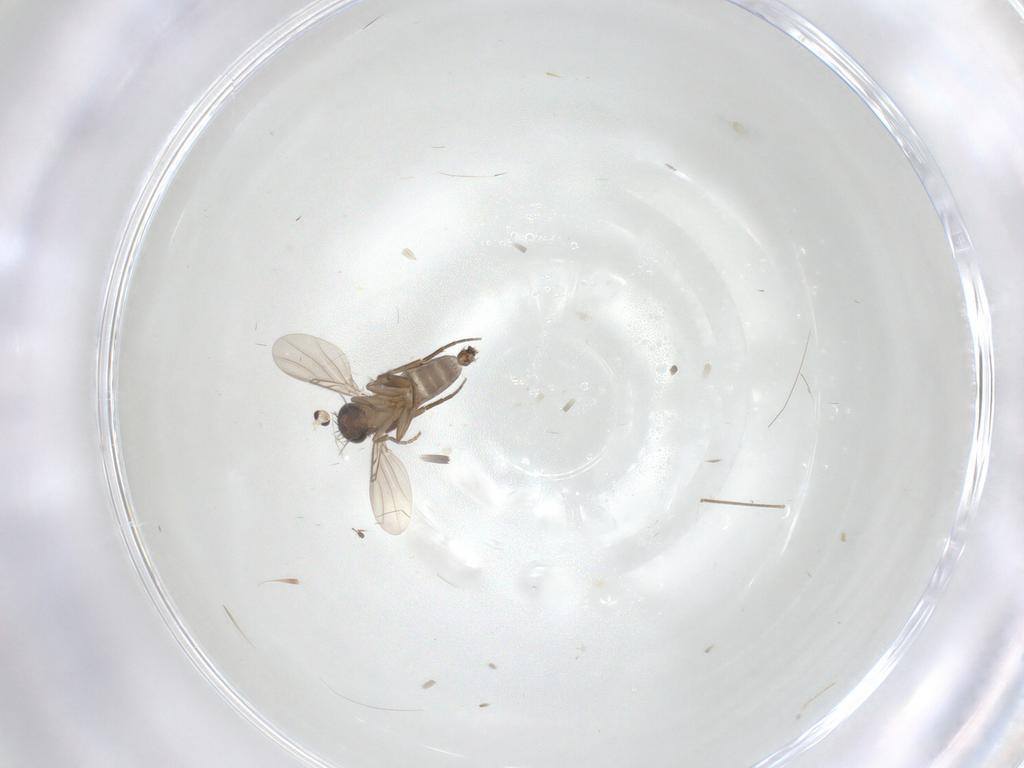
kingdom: Animalia
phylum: Arthropoda
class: Insecta
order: Diptera
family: Phoridae
